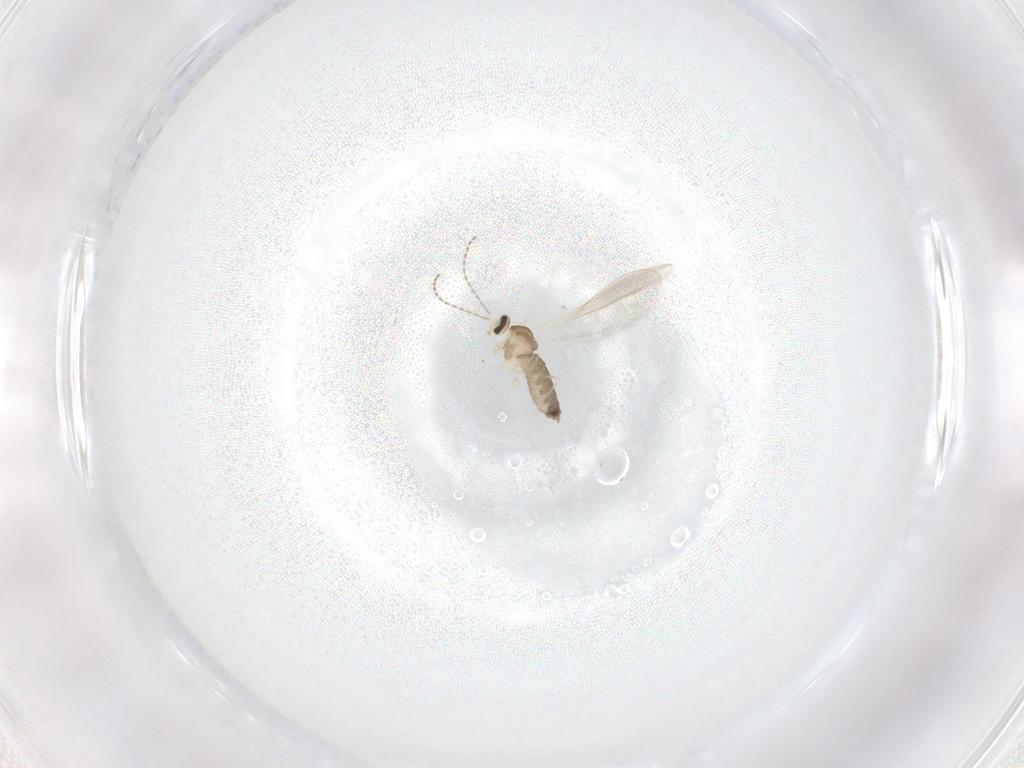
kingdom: Animalia
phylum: Arthropoda
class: Insecta
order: Diptera
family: Cecidomyiidae
